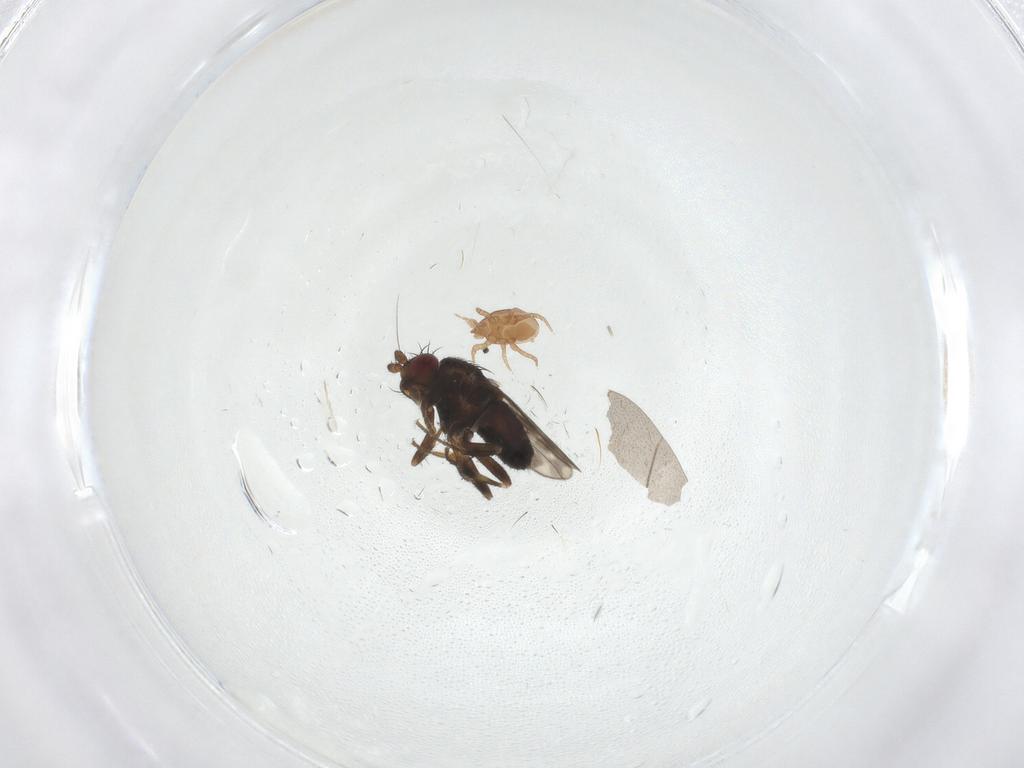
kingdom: Animalia
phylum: Arthropoda
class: Insecta
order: Diptera
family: Sphaeroceridae
